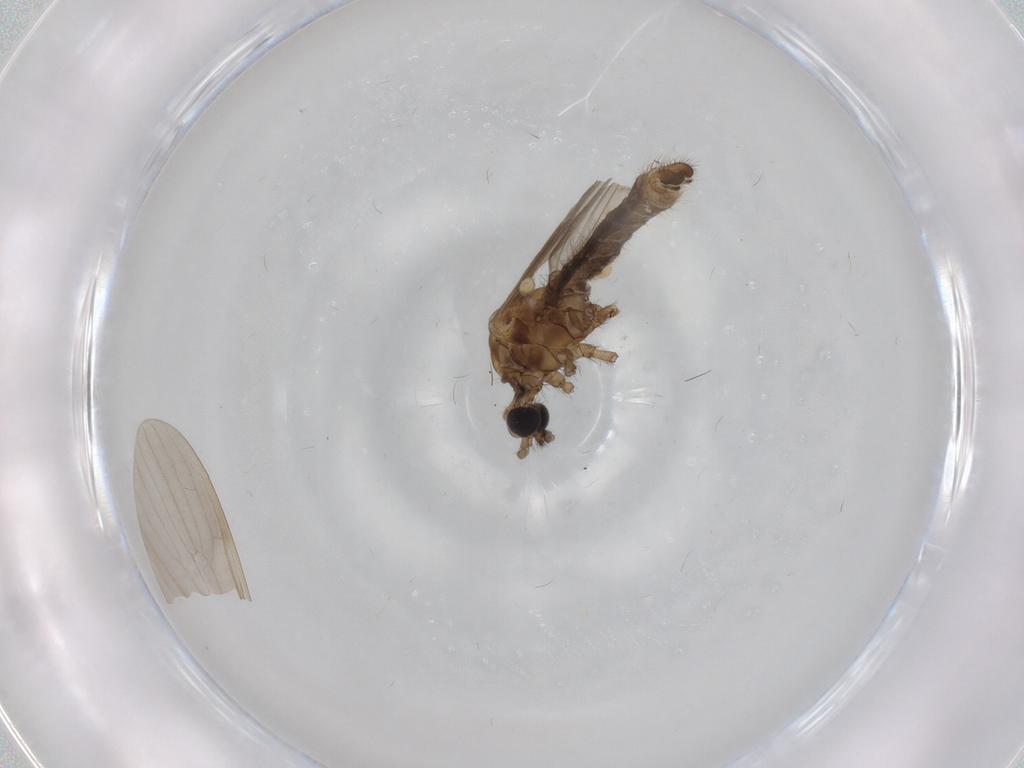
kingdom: Animalia
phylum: Arthropoda
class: Insecta
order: Diptera
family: Limoniidae
